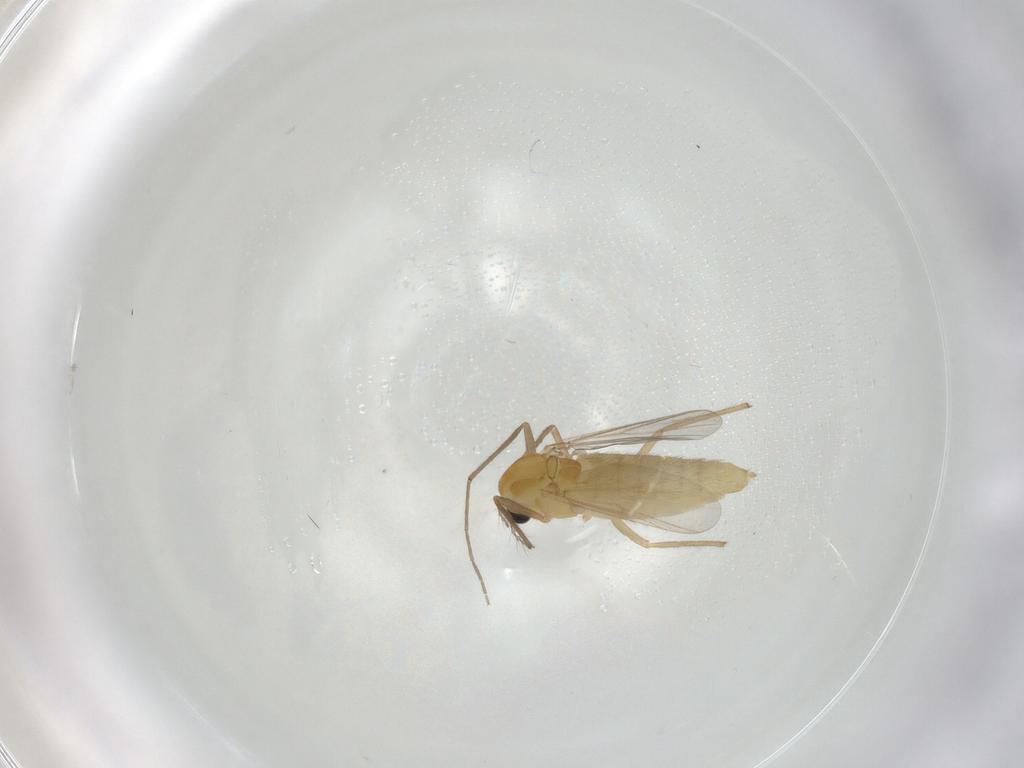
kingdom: Animalia
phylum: Arthropoda
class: Insecta
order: Diptera
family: Chironomidae
